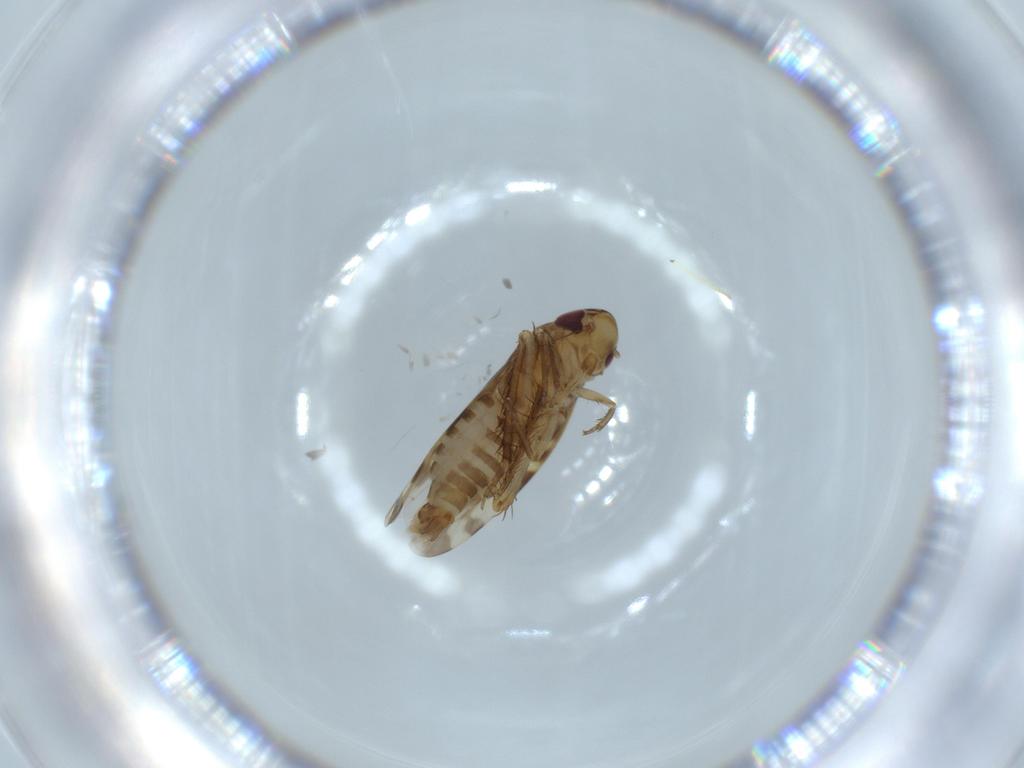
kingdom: Animalia
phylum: Arthropoda
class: Insecta
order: Hemiptera
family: Cicadellidae
